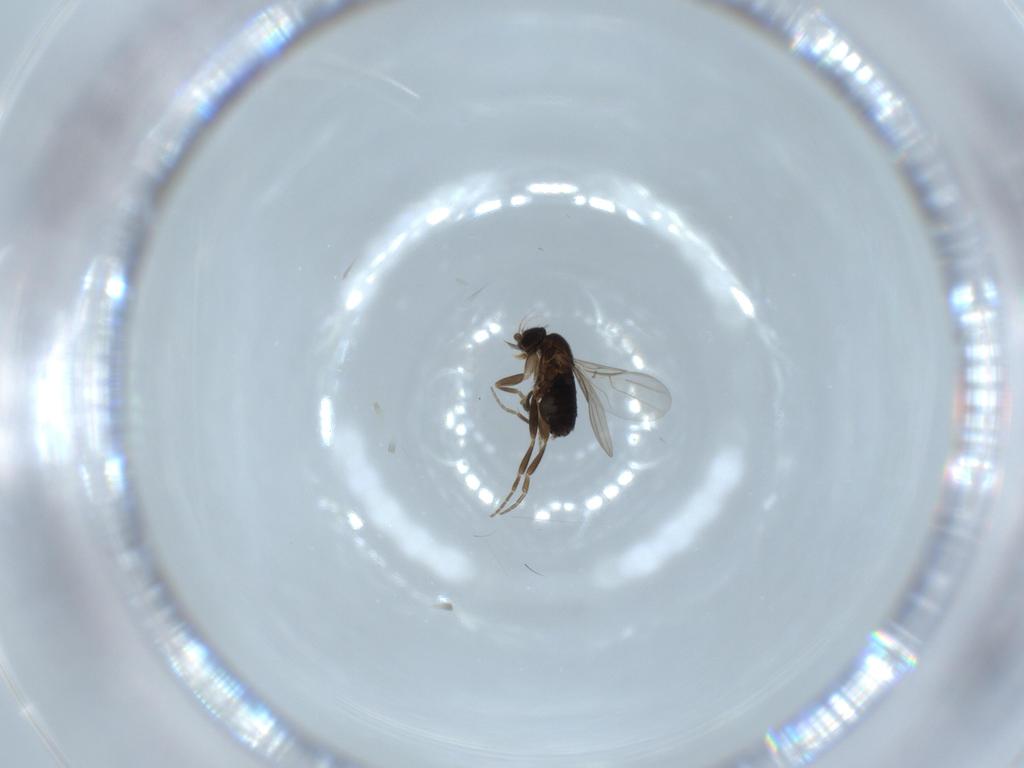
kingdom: Animalia
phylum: Arthropoda
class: Insecta
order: Diptera
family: Phoridae
